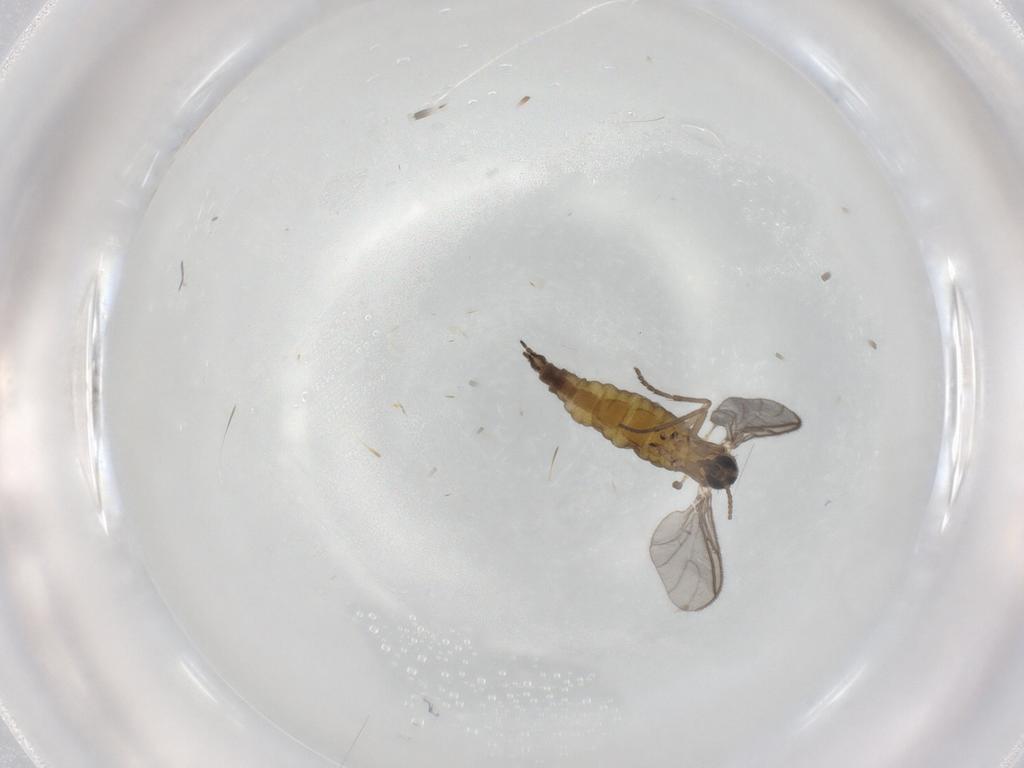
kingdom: Animalia
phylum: Arthropoda
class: Insecta
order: Diptera
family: Sciaridae
